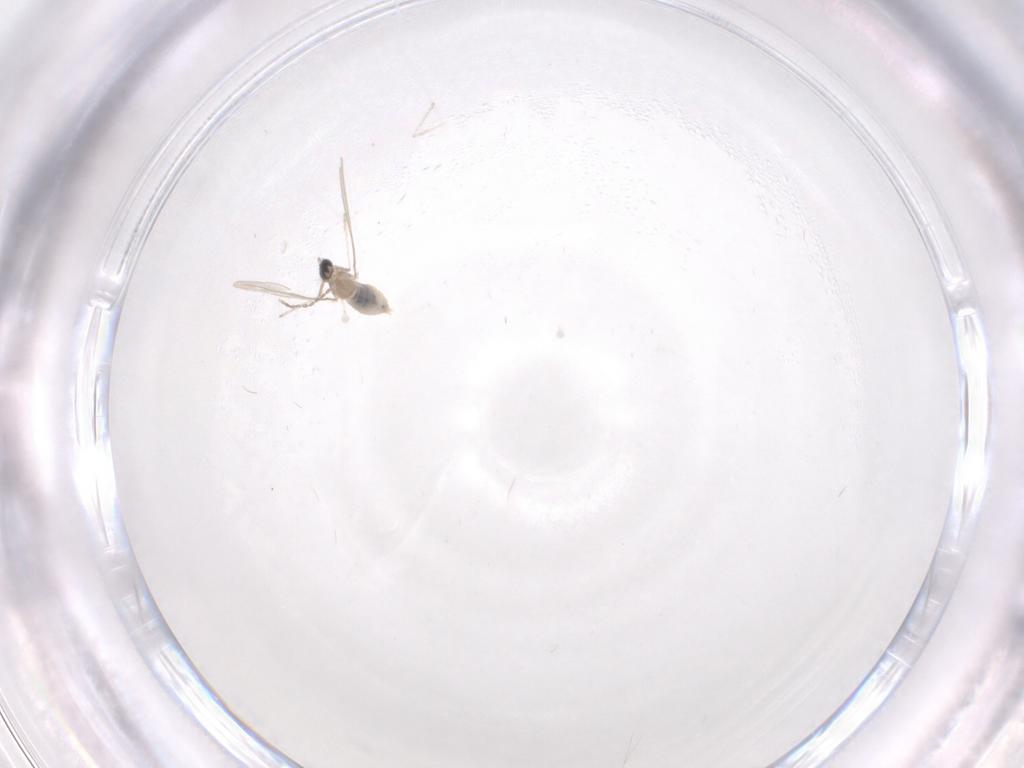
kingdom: Animalia
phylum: Arthropoda
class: Insecta
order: Diptera
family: Cecidomyiidae
